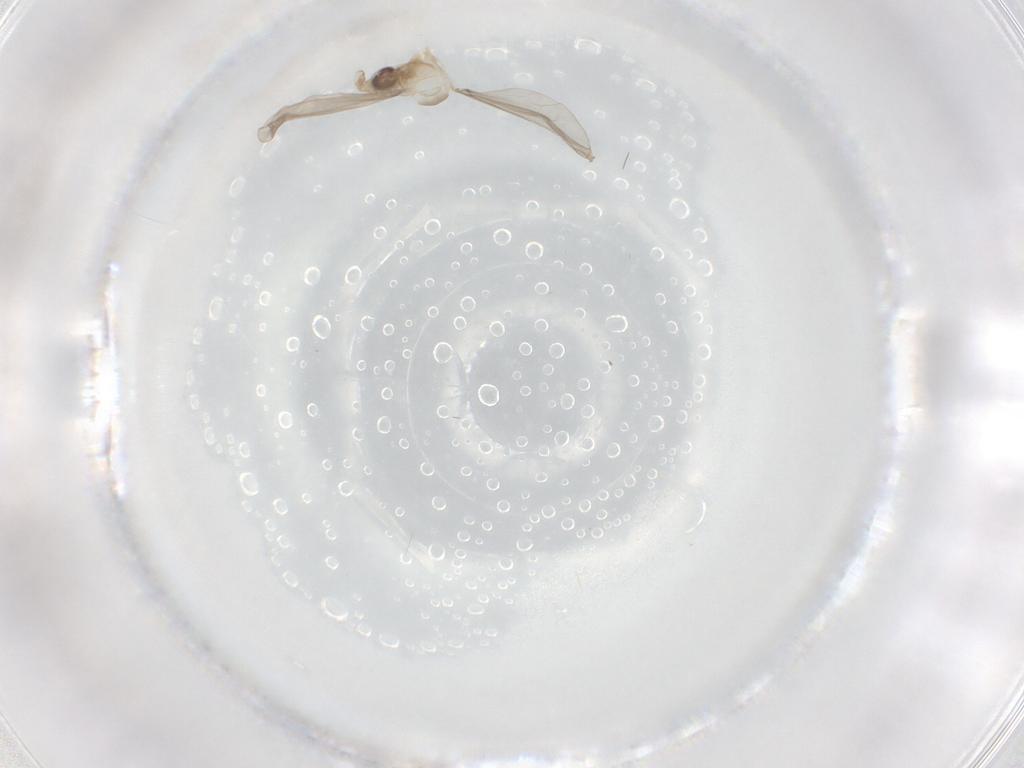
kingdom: Animalia
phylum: Arthropoda
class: Insecta
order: Diptera
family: Cecidomyiidae
